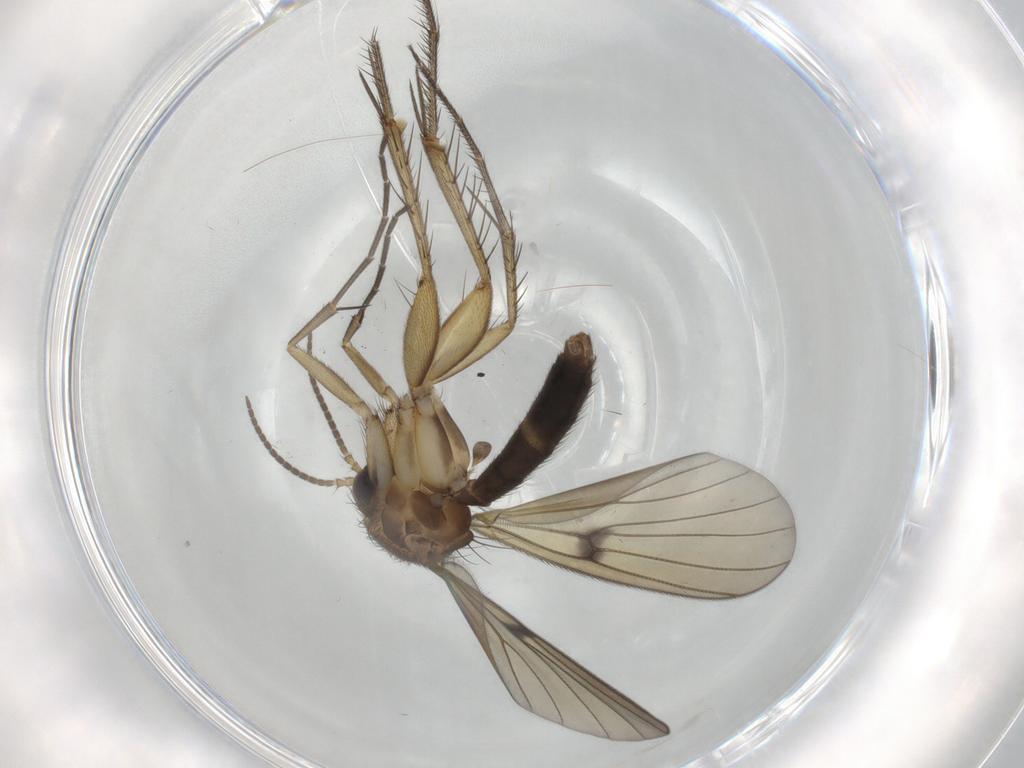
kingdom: Animalia
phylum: Arthropoda
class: Insecta
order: Diptera
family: Mycetophilidae
